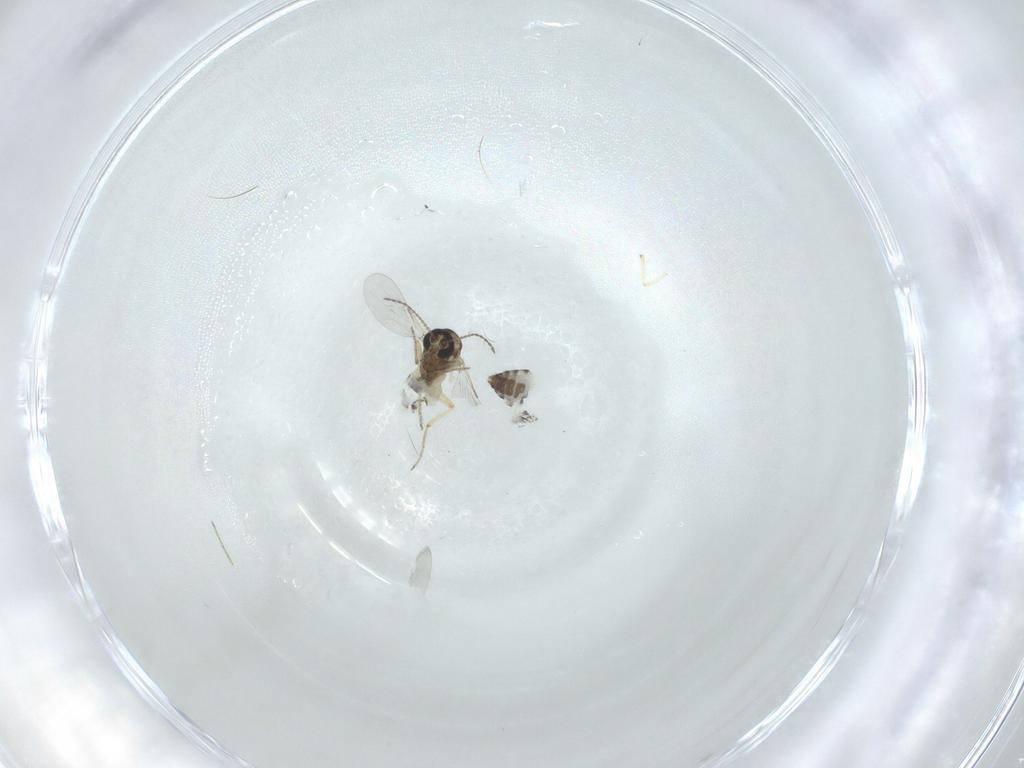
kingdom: Animalia
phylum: Arthropoda
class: Insecta
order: Diptera
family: Ceratopogonidae
